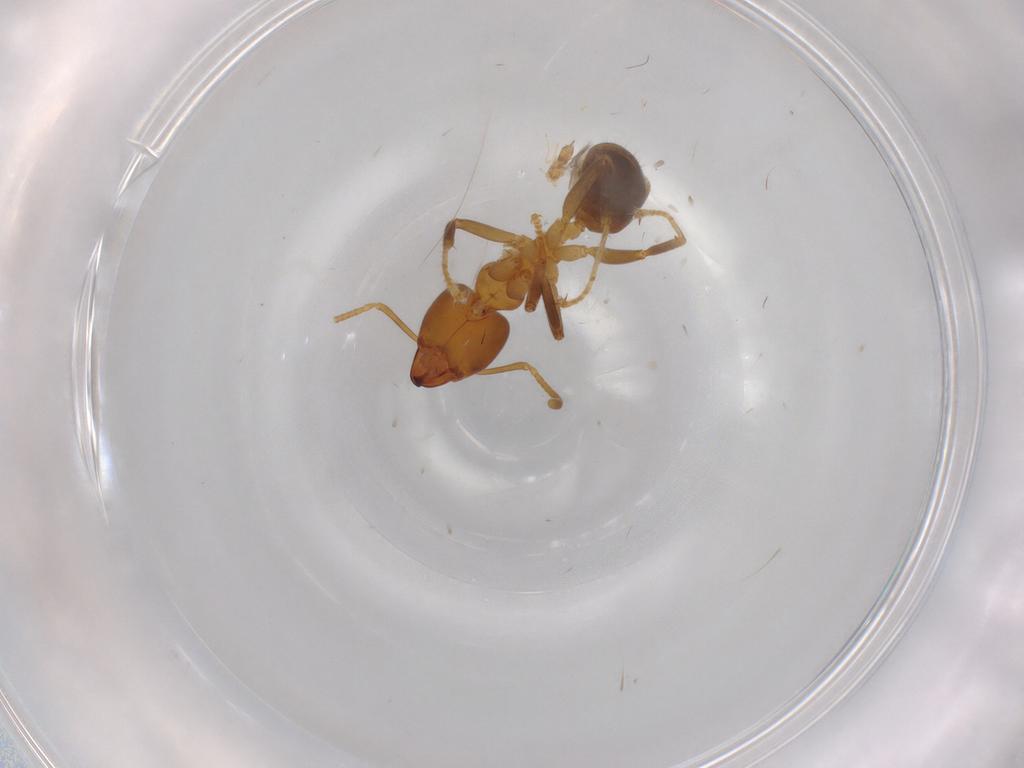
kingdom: Animalia
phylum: Arthropoda
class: Insecta
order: Hymenoptera
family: Formicidae
